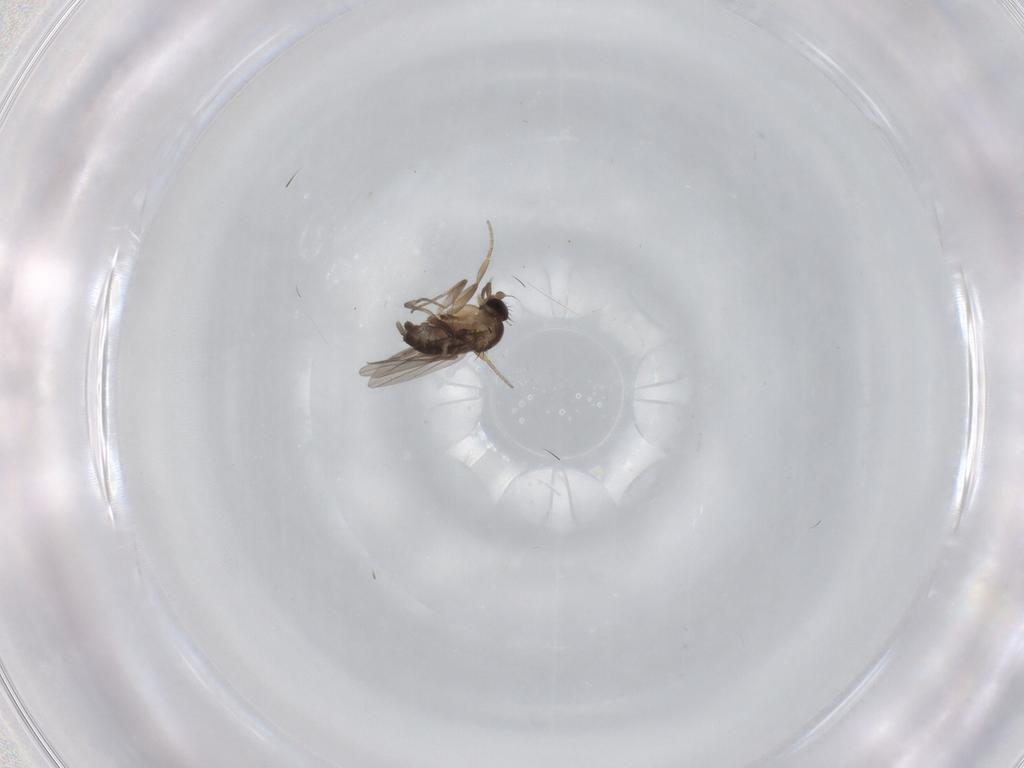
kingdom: Animalia
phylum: Arthropoda
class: Insecta
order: Diptera
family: Phoridae
